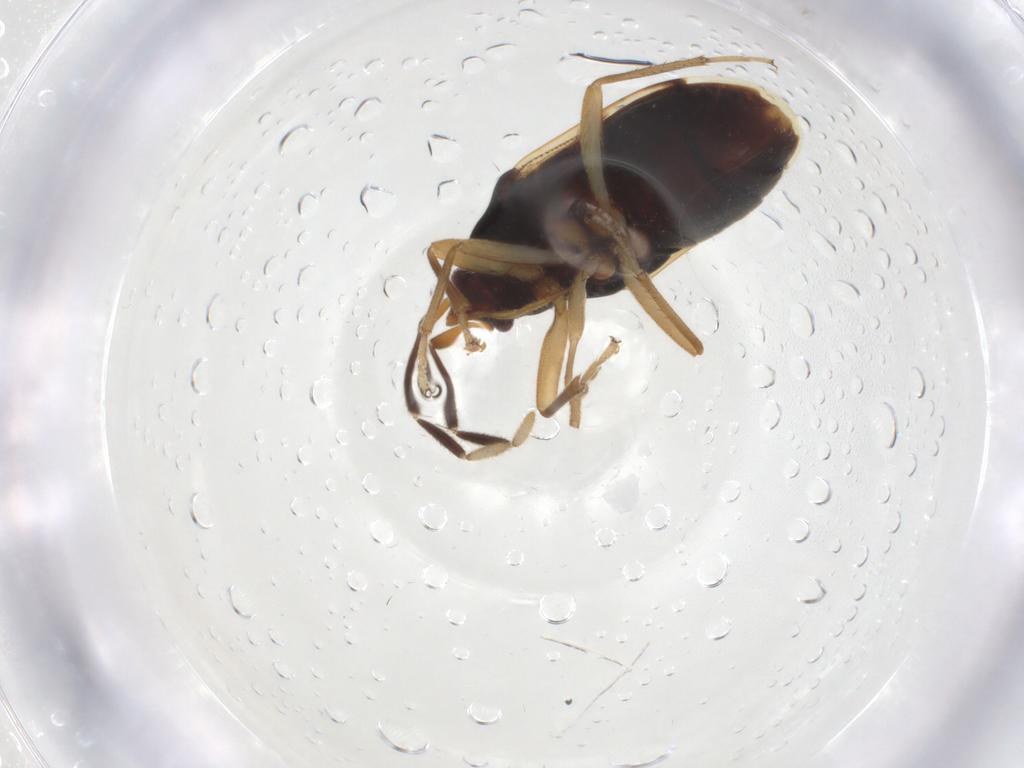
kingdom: Animalia
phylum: Arthropoda
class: Insecta
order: Hemiptera
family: Rhyparochromidae
